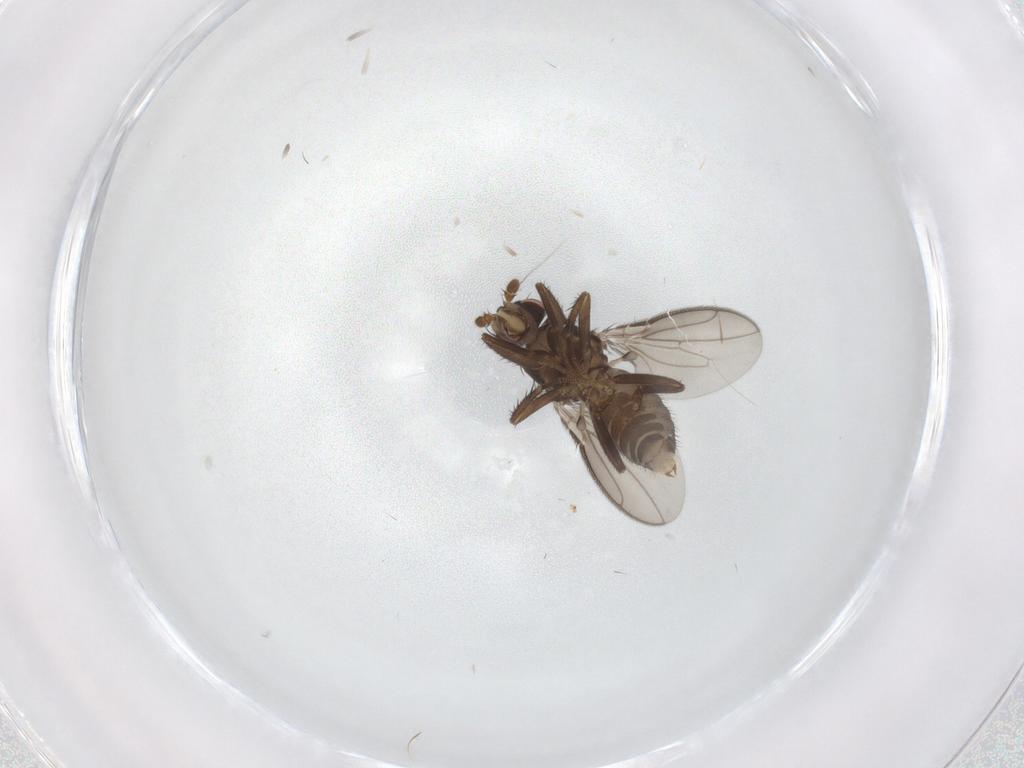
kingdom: Animalia
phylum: Arthropoda
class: Insecta
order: Diptera
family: Sphaeroceridae
